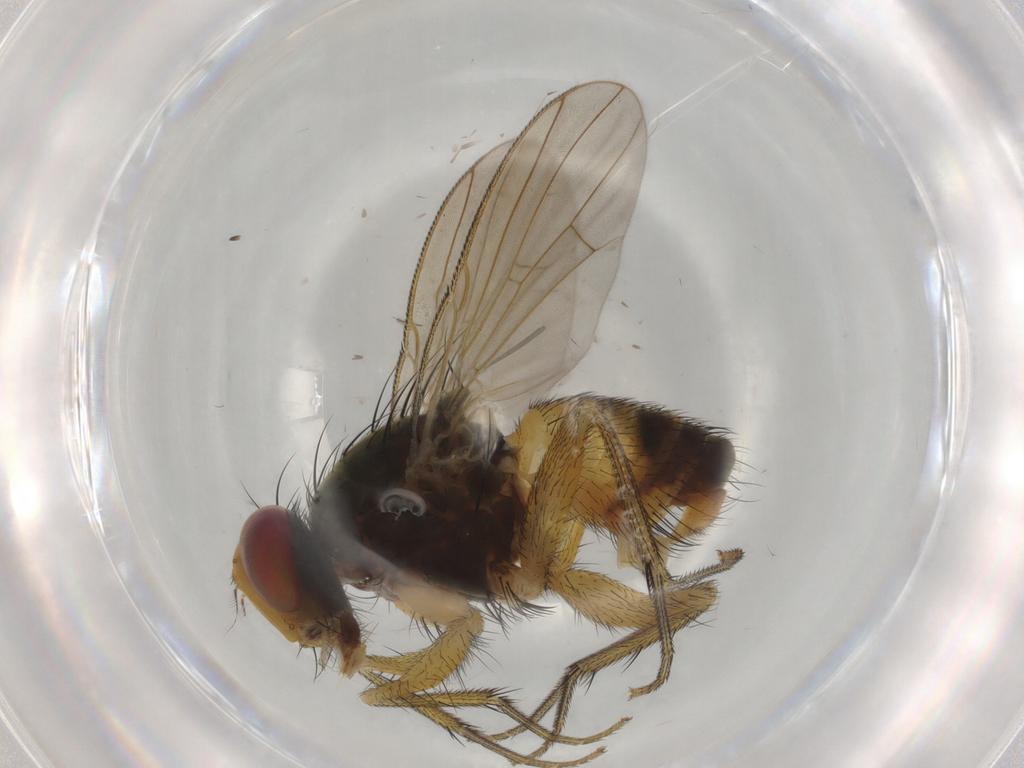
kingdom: Animalia
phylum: Arthropoda
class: Insecta
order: Diptera
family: Muscidae
